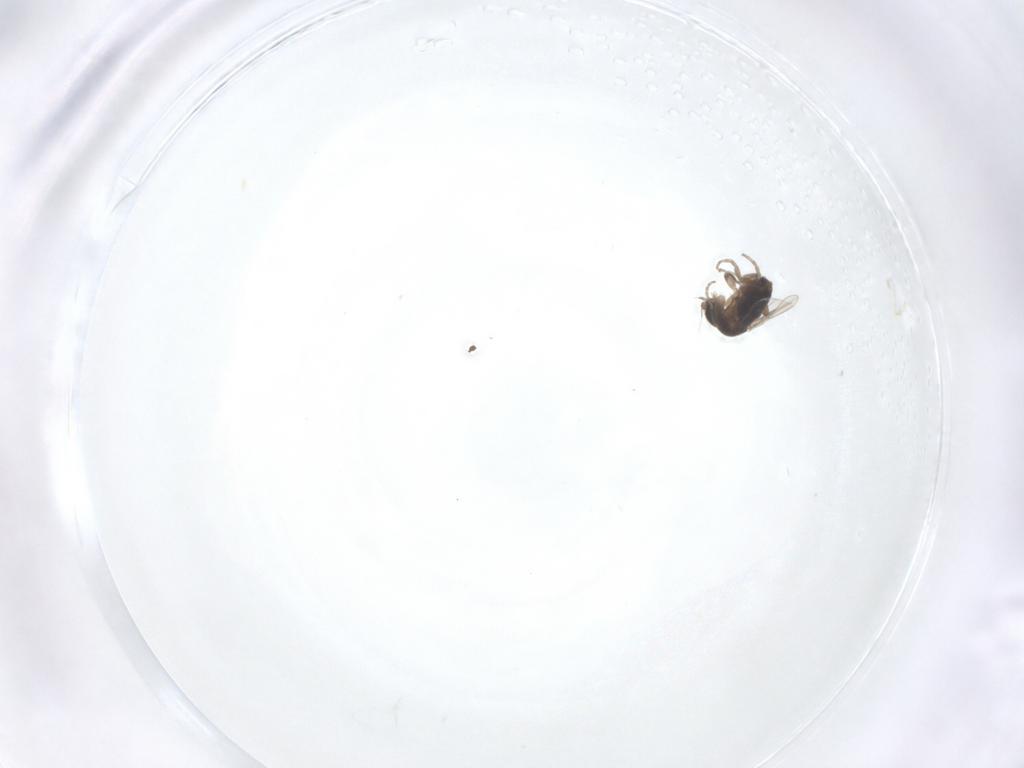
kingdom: Animalia
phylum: Arthropoda
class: Insecta
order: Diptera
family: Phoridae
